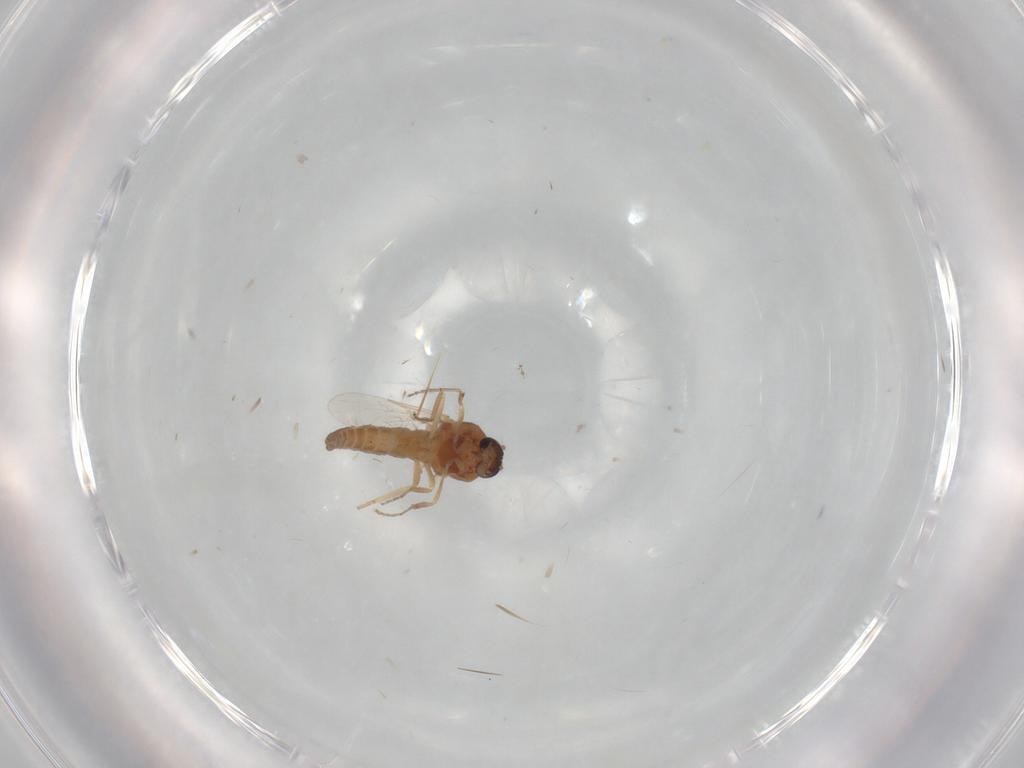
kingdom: Animalia
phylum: Arthropoda
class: Insecta
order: Diptera
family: Ceratopogonidae
